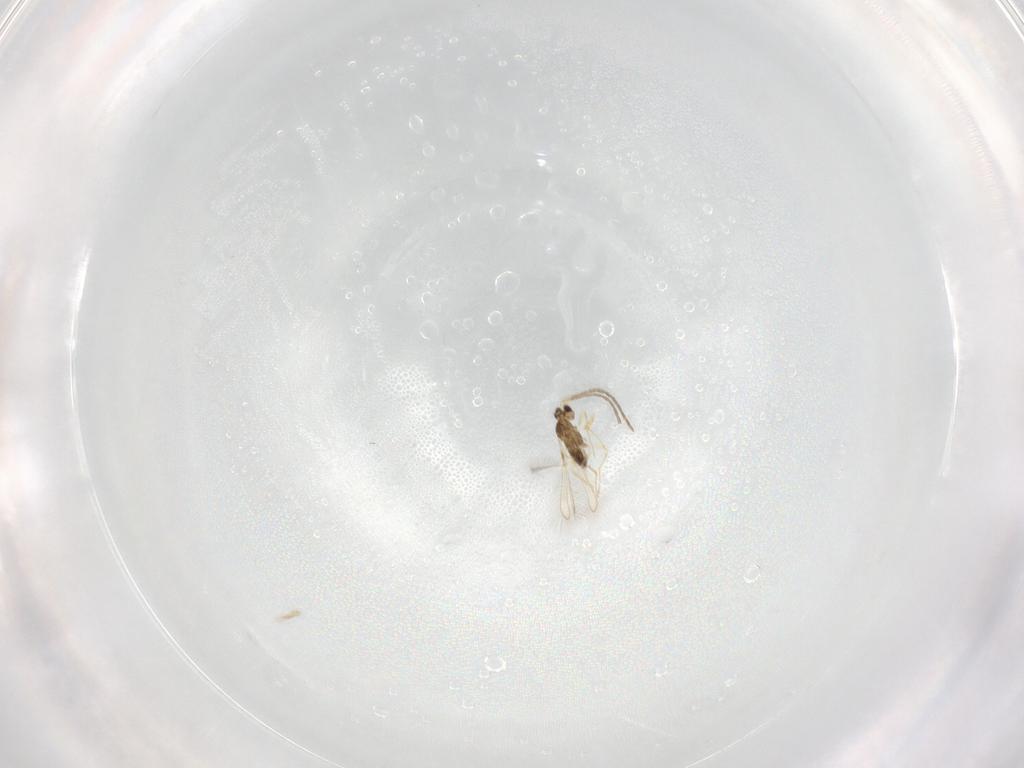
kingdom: Animalia
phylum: Arthropoda
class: Insecta
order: Hymenoptera
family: Mymaridae
